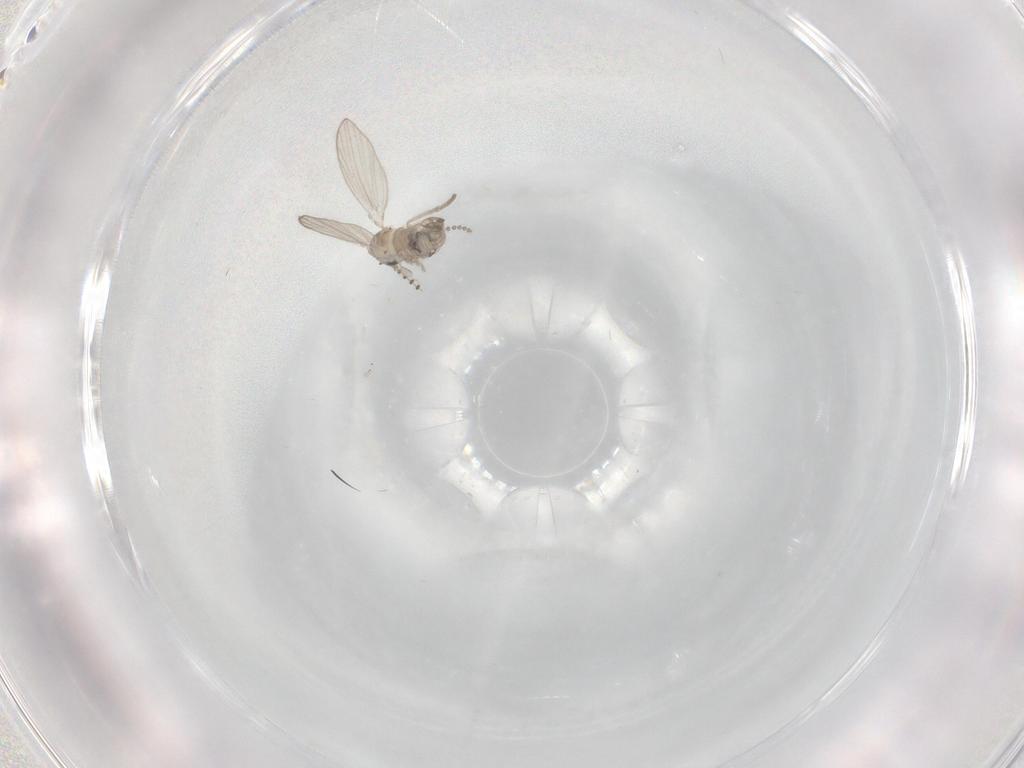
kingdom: Animalia
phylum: Arthropoda
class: Insecta
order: Diptera
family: Psychodidae
